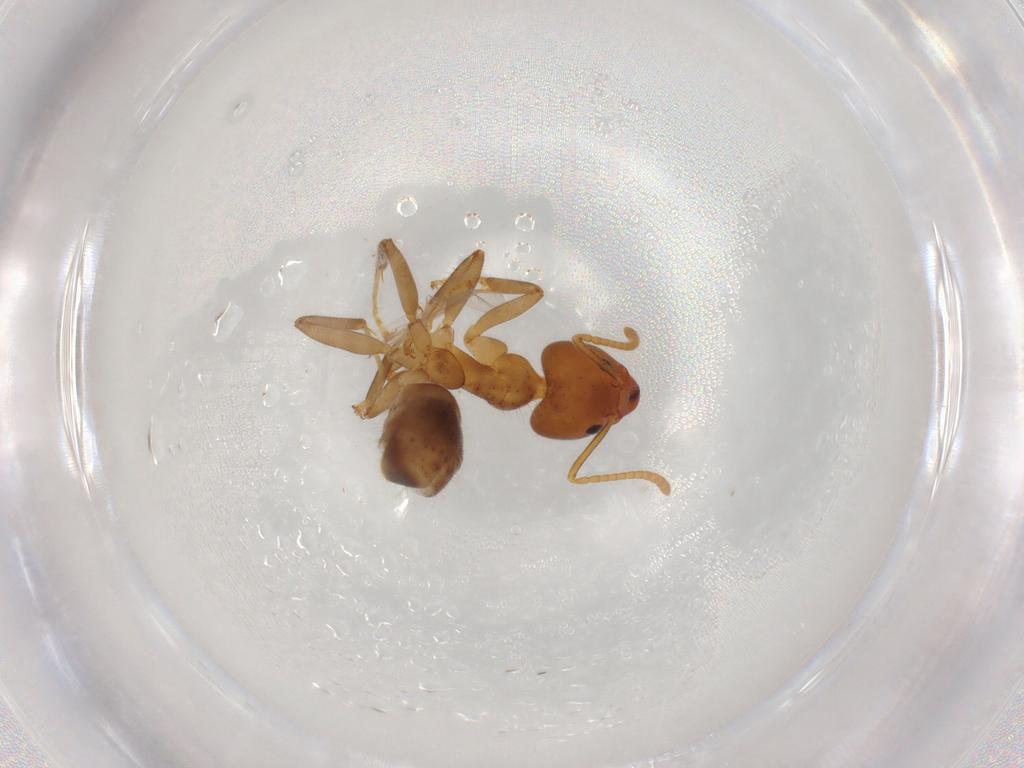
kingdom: Animalia
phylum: Arthropoda
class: Insecta
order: Hymenoptera
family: Formicidae
